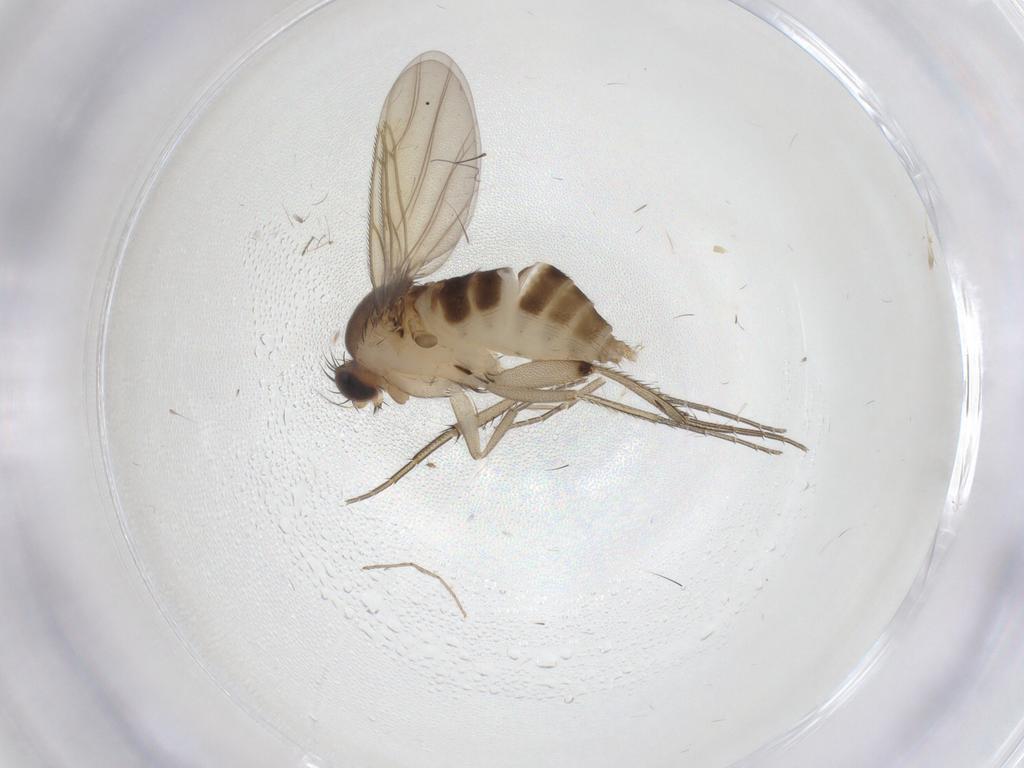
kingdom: Animalia
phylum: Arthropoda
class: Insecta
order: Diptera
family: Phoridae
